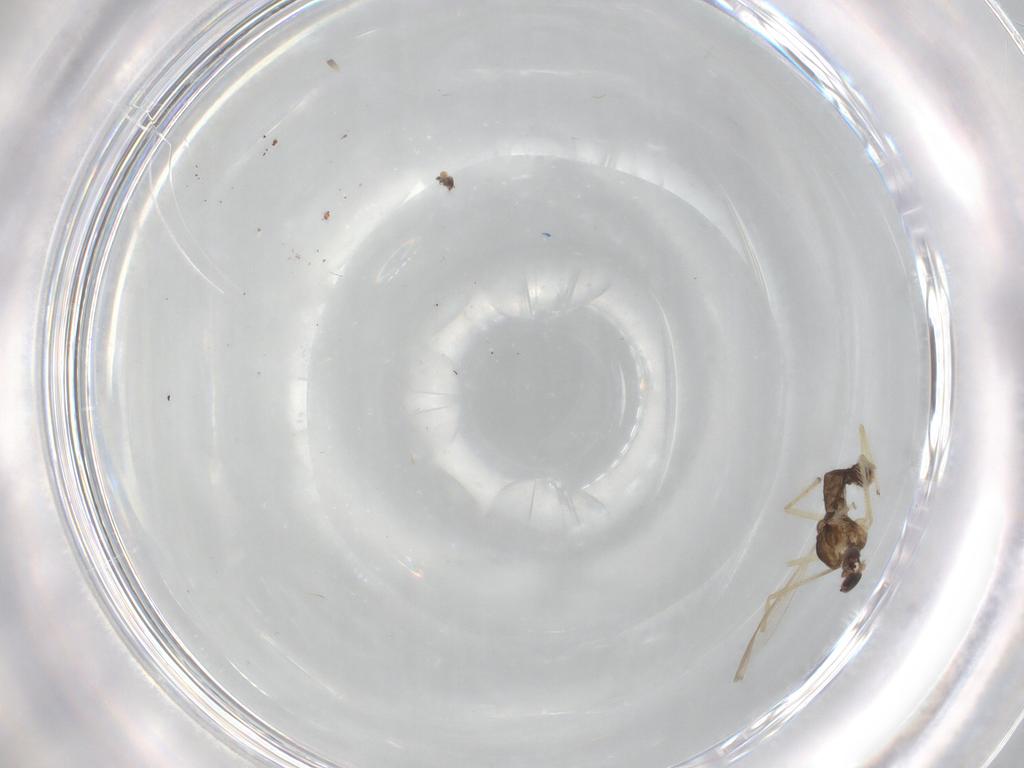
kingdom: Animalia
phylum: Arthropoda
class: Insecta
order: Diptera
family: Chironomidae
